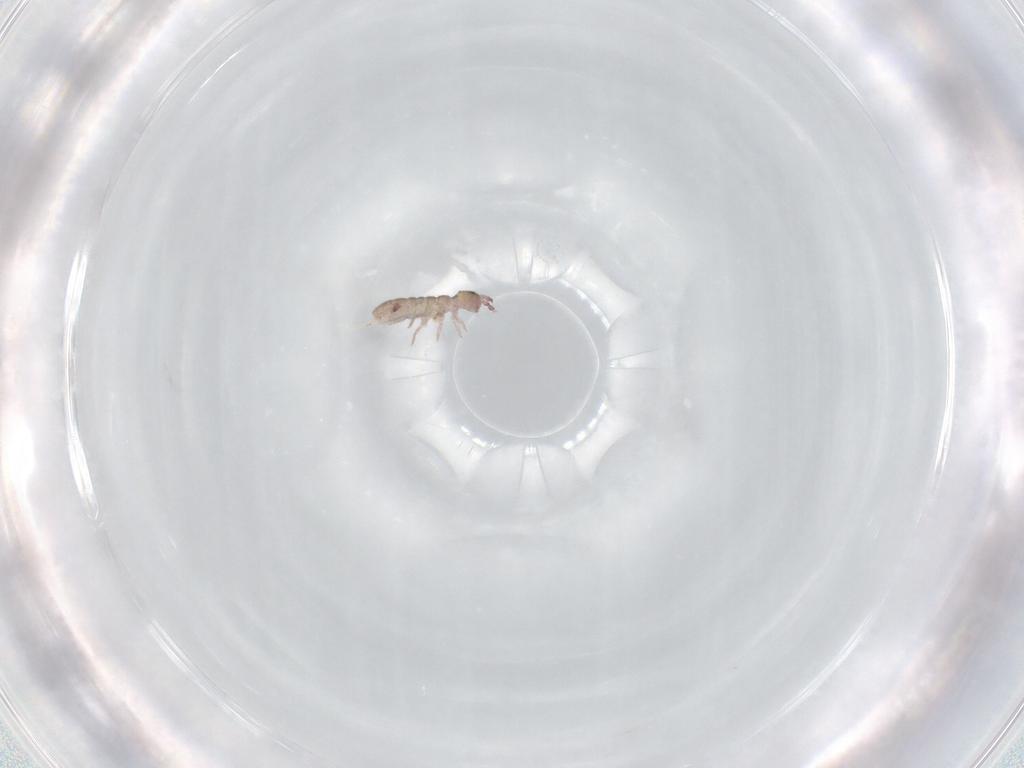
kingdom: Animalia
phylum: Arthropoda
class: Collembola
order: Entomobryomorpha
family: Isotomidae
